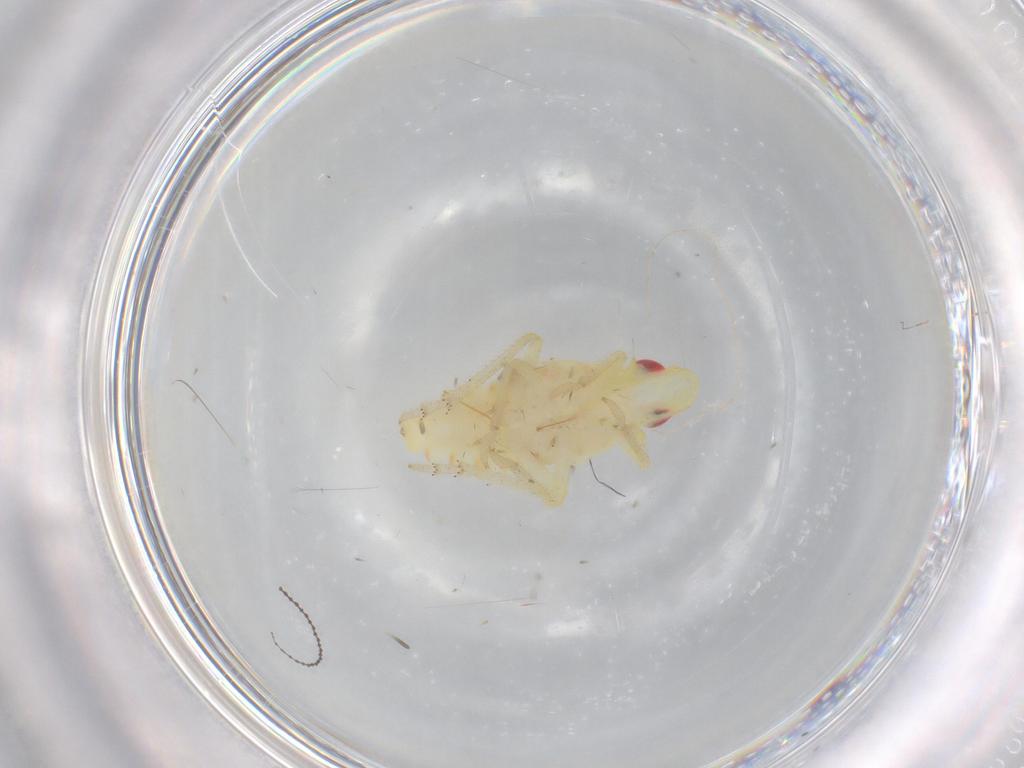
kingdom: Animalia
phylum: Arthropoda
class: Insecta
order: Hemiptera
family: Tropiduchidae
